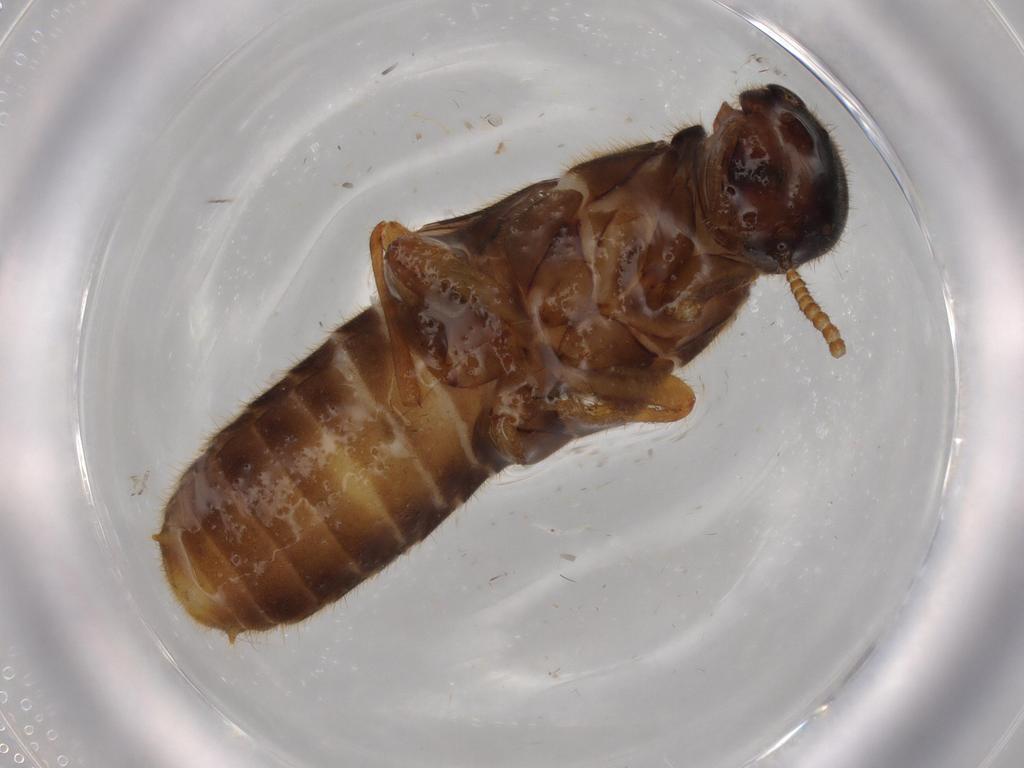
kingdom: Animalia
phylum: Arthropoda
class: Insecta
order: Blattodea
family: Termitidae
